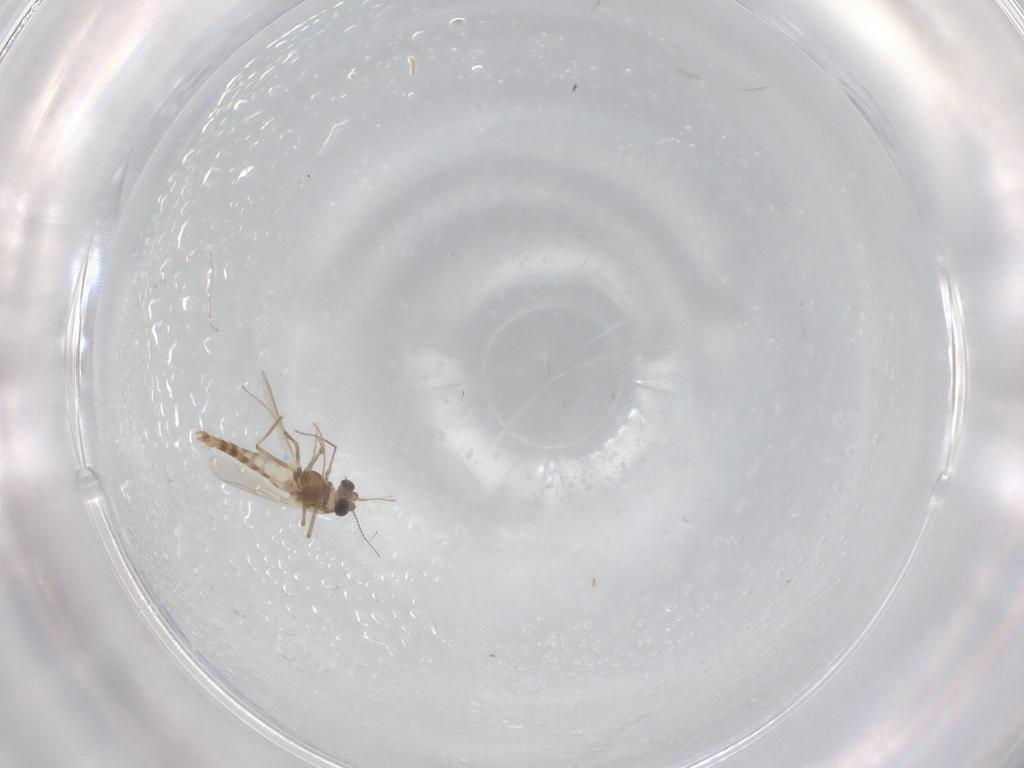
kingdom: Animalia
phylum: Arthropoda
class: Insecta
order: Diptera
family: Chironomidae
